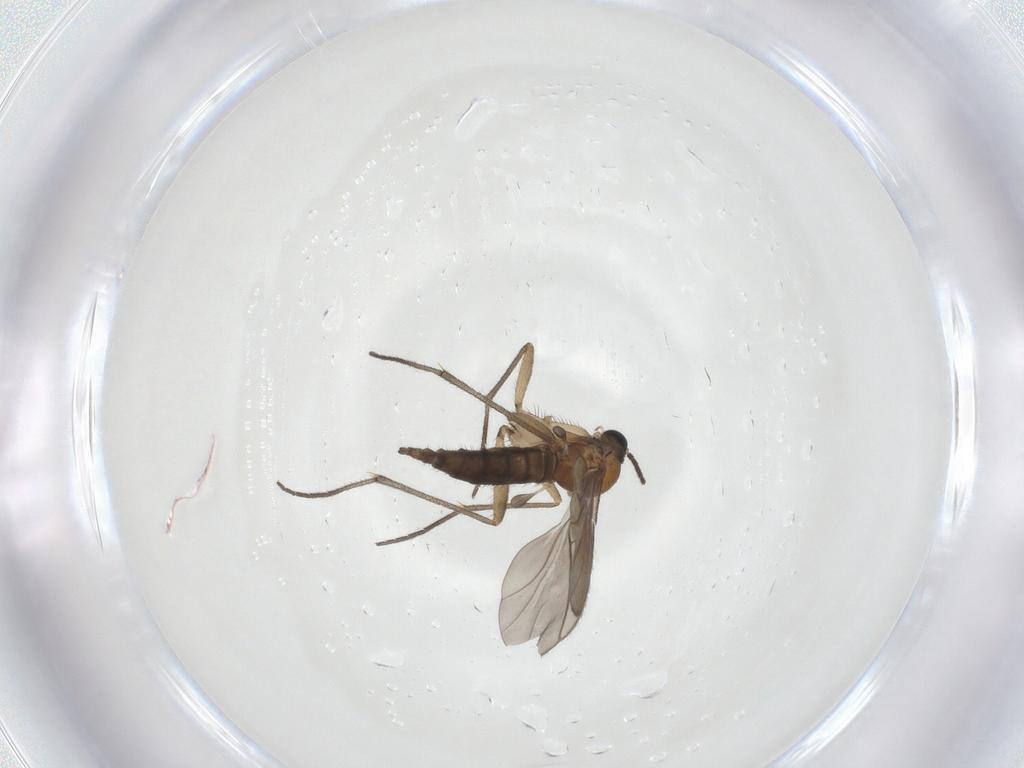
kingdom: Animalia
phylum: Arthropoda
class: Insecta
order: Diptera
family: Sciaridae
